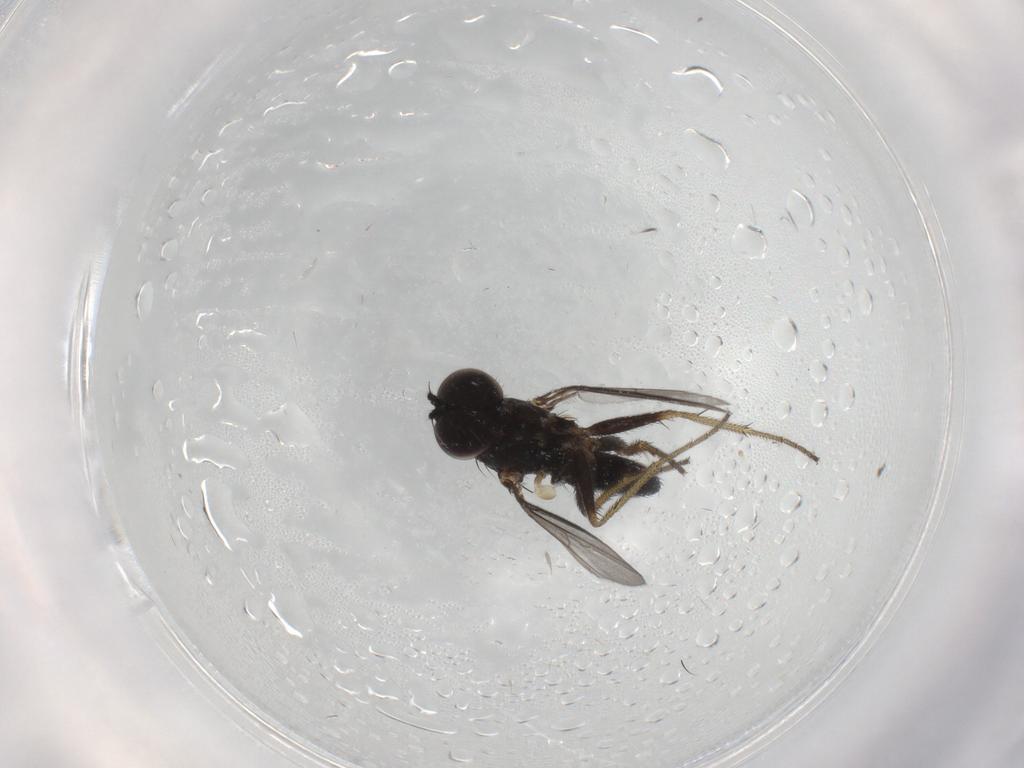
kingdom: Animalia
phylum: Arthropoda
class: Insecta
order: Diptera
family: Dolichopodidae
